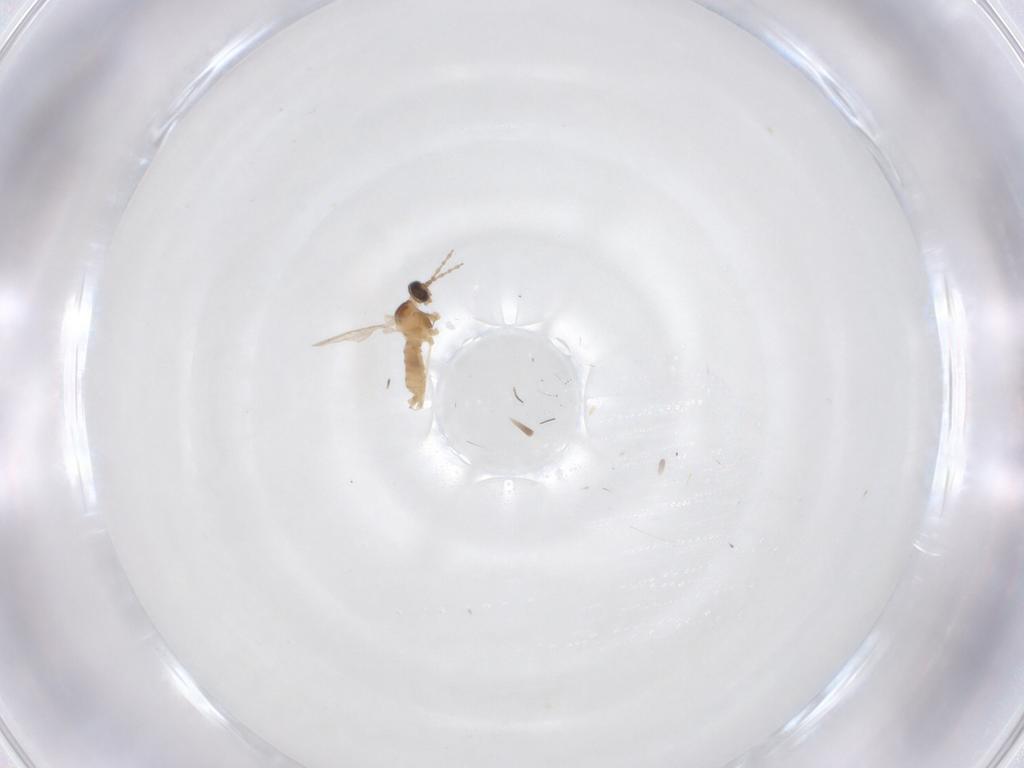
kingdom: Animalia
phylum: Arthropoda
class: Insecta
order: Diptera
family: Cecidomyiidae
